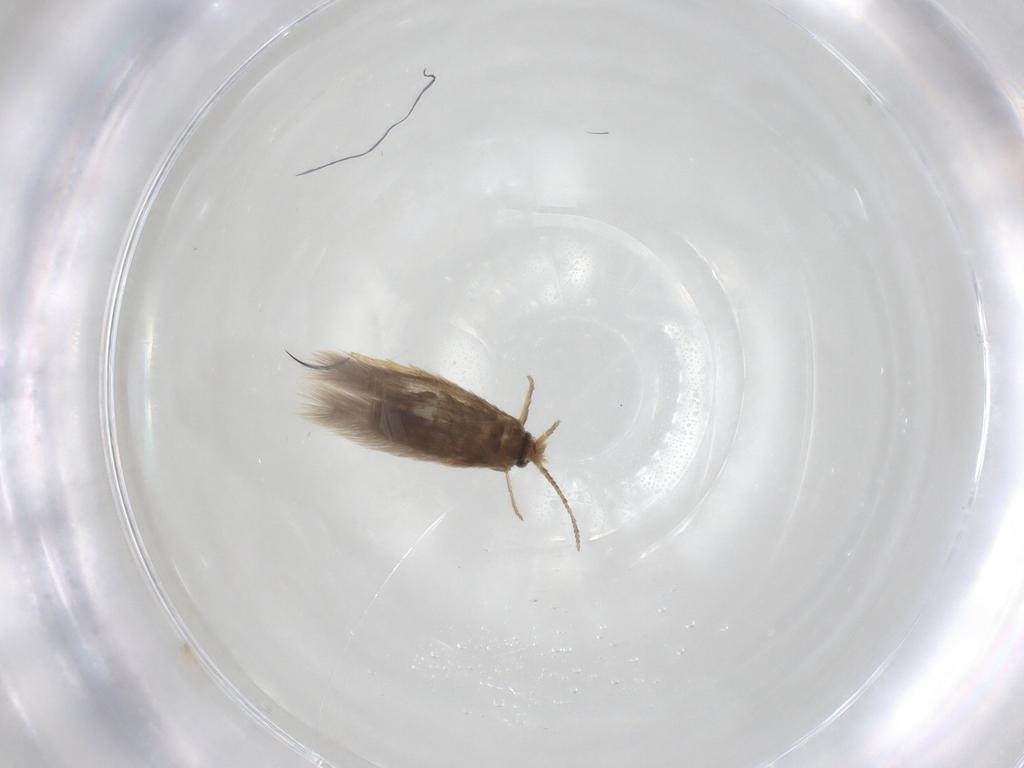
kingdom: Animalia
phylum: Arthropoda
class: Insecta
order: Lepidoptera
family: Nepticulidae
